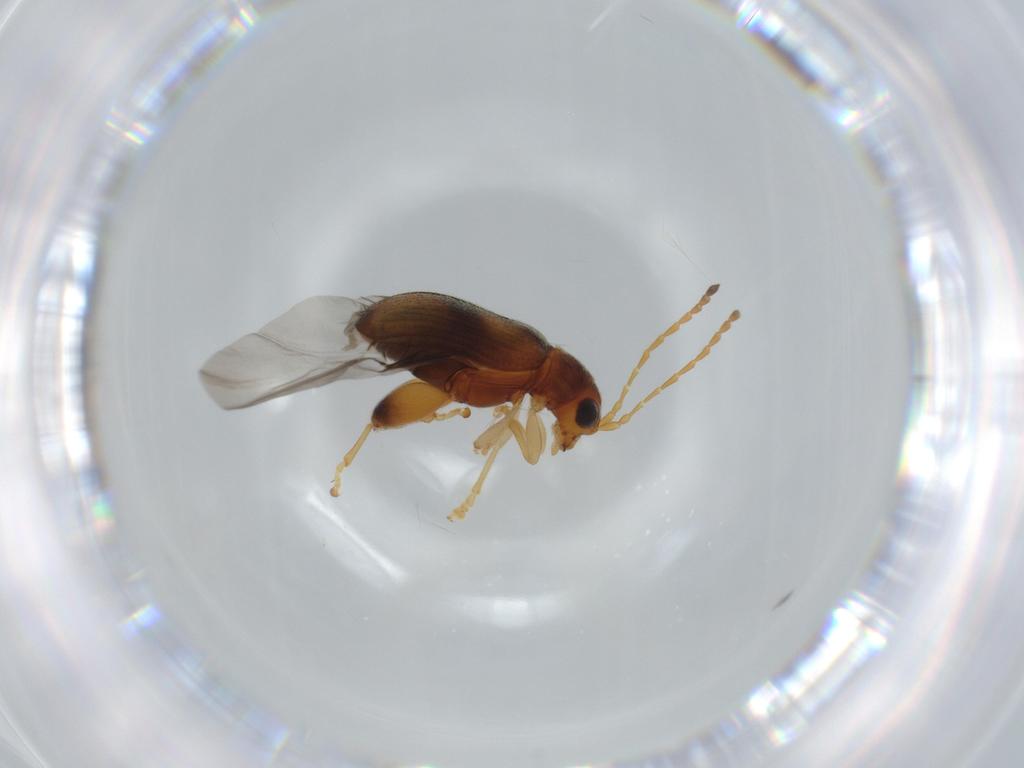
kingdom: Animalia
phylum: Arthropoda
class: Insecta
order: Coleoptera
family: Chrysomelidae
